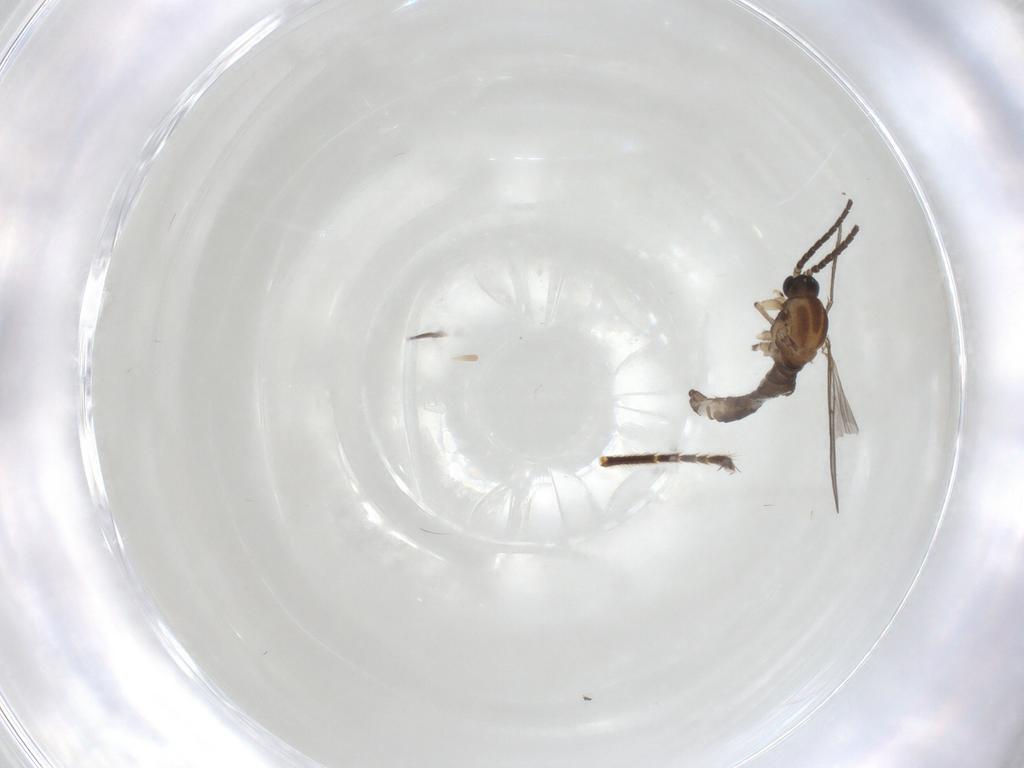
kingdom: Animalia
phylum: Arthropoda
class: Insecta
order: Diptera
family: Sciaridae
